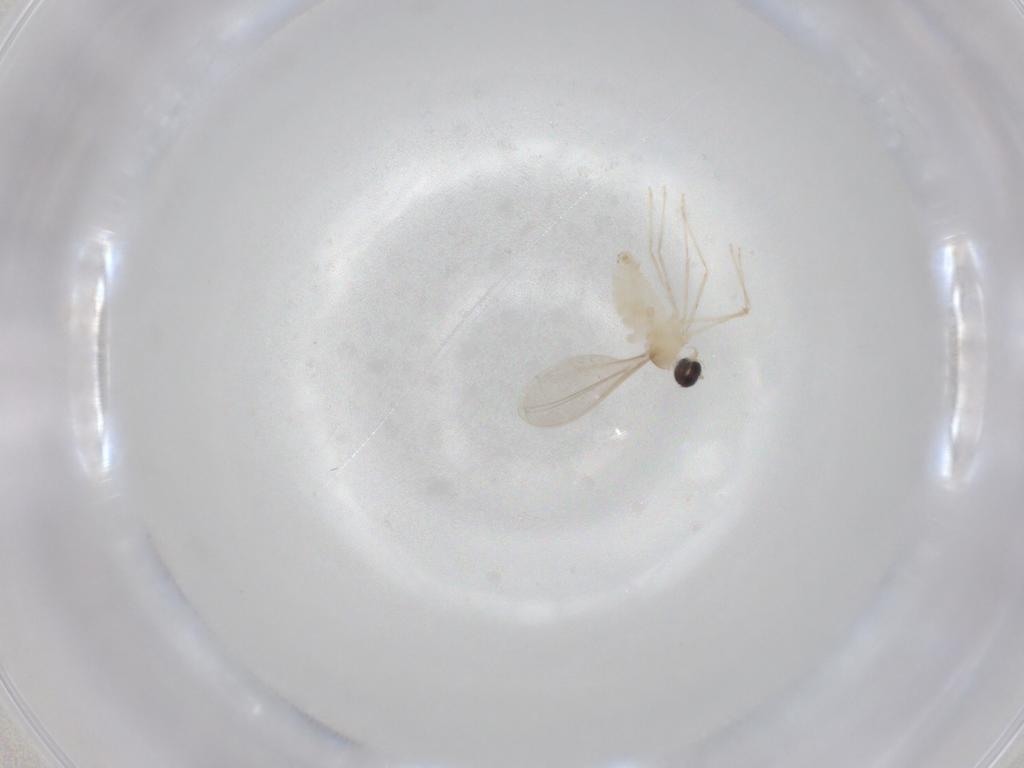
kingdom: Animalia
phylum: Arthropoda
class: Insecta
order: Diptera
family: Cecidomyiidae
